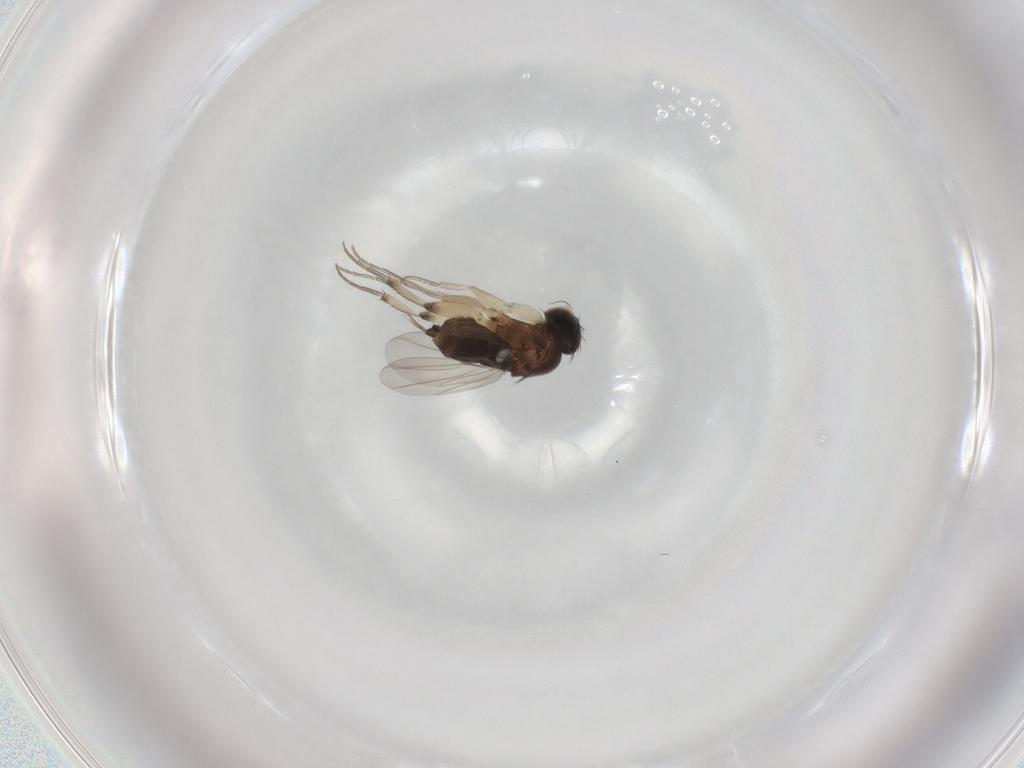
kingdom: Animalia
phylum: Arthropoda
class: Insecta
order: Diptera
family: Phoridae
